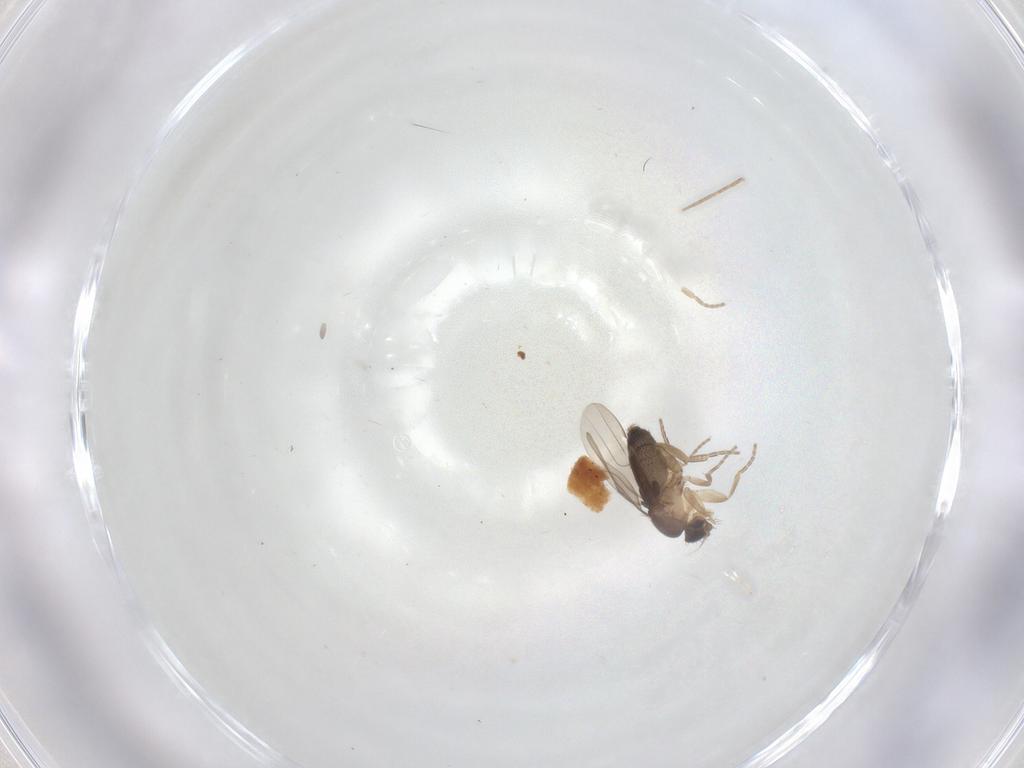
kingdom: Animalia
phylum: Arthropoda
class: Insecta
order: Diptera
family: Phoridae
